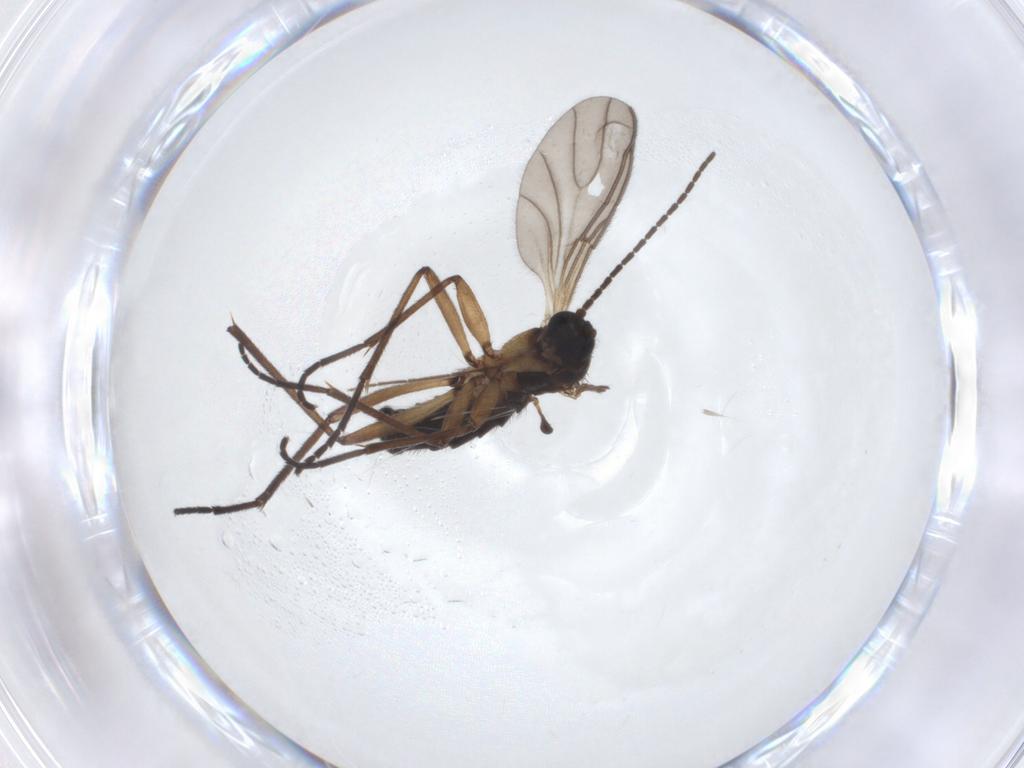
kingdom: Animalia
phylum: Arthropoda
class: Insecta
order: Diptera
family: Sciaridae
